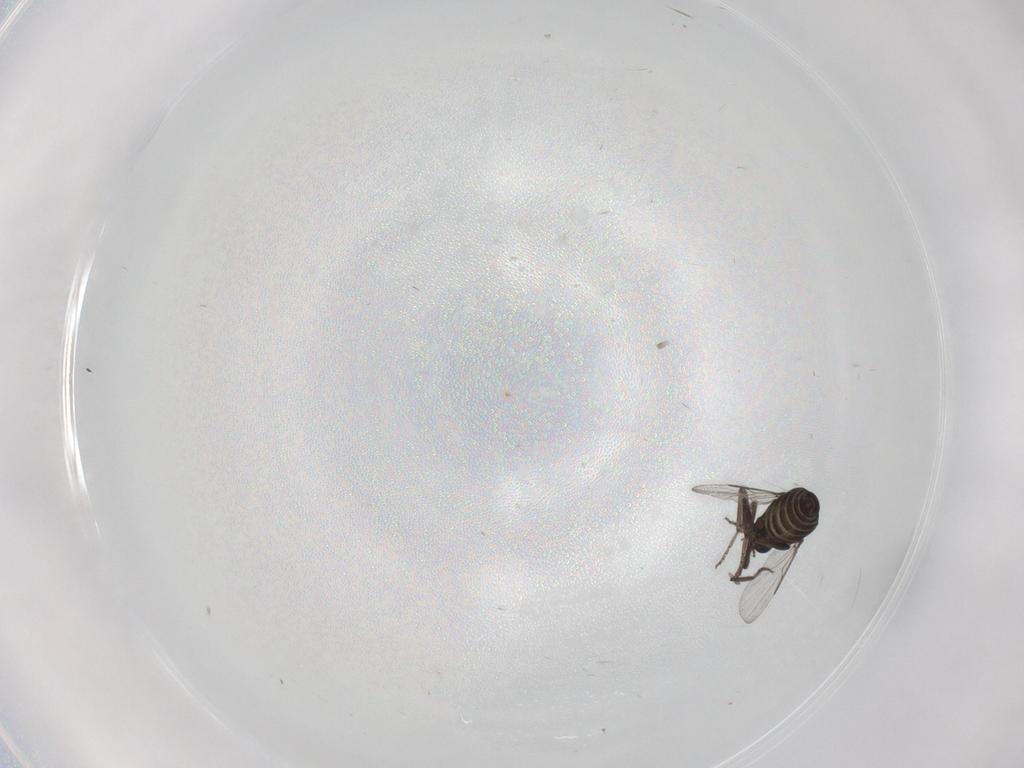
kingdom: Animalia
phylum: Arthropoda
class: Insecta
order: Diptera
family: Ceratopogonidae
